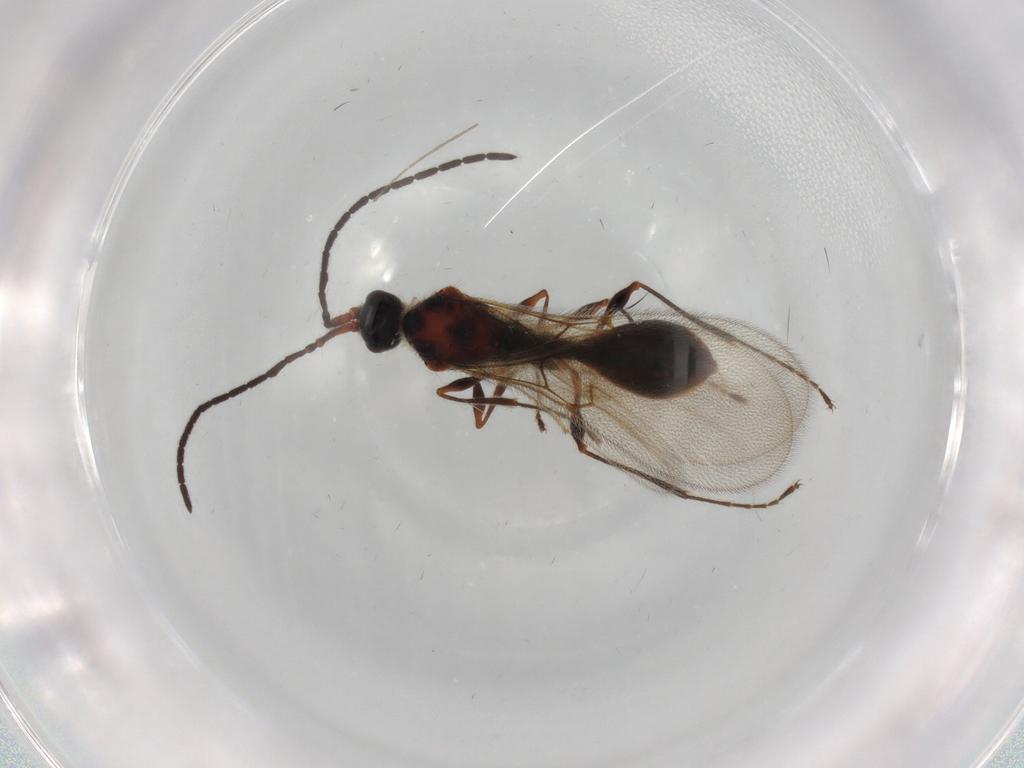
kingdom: Animalia
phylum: Arthropoda
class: Insecta
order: Hymenoptera
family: Diapriidae
